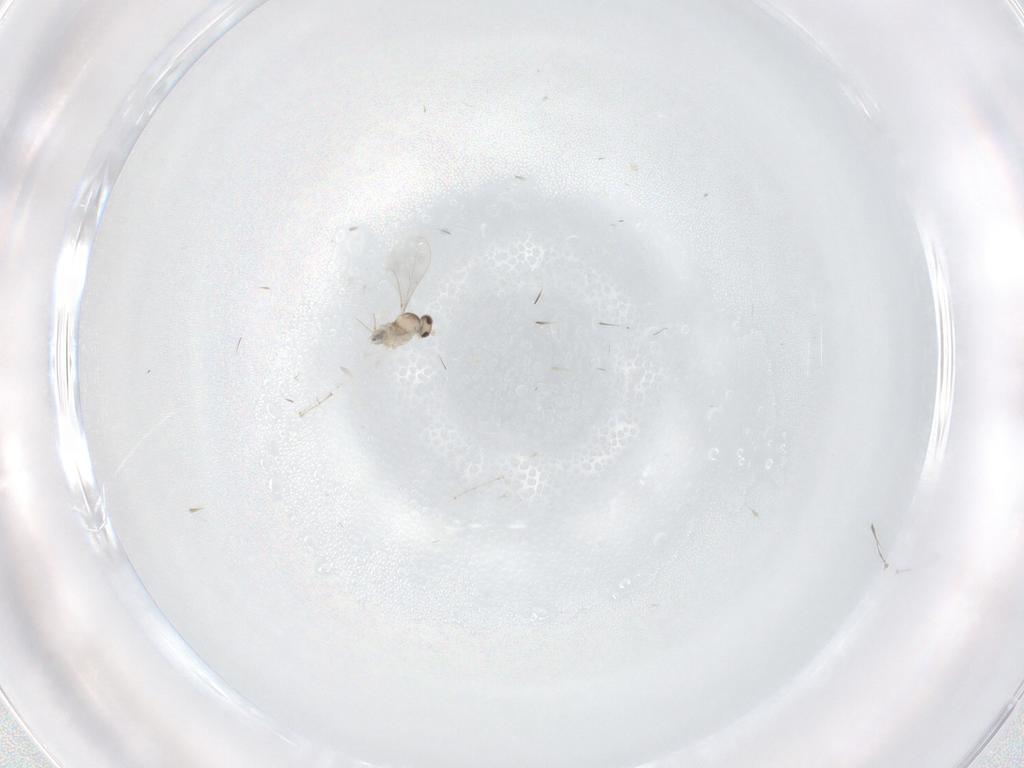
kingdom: Animalia
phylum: Arthropoda
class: Insecta
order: Diptera
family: Cecidomyiidae
